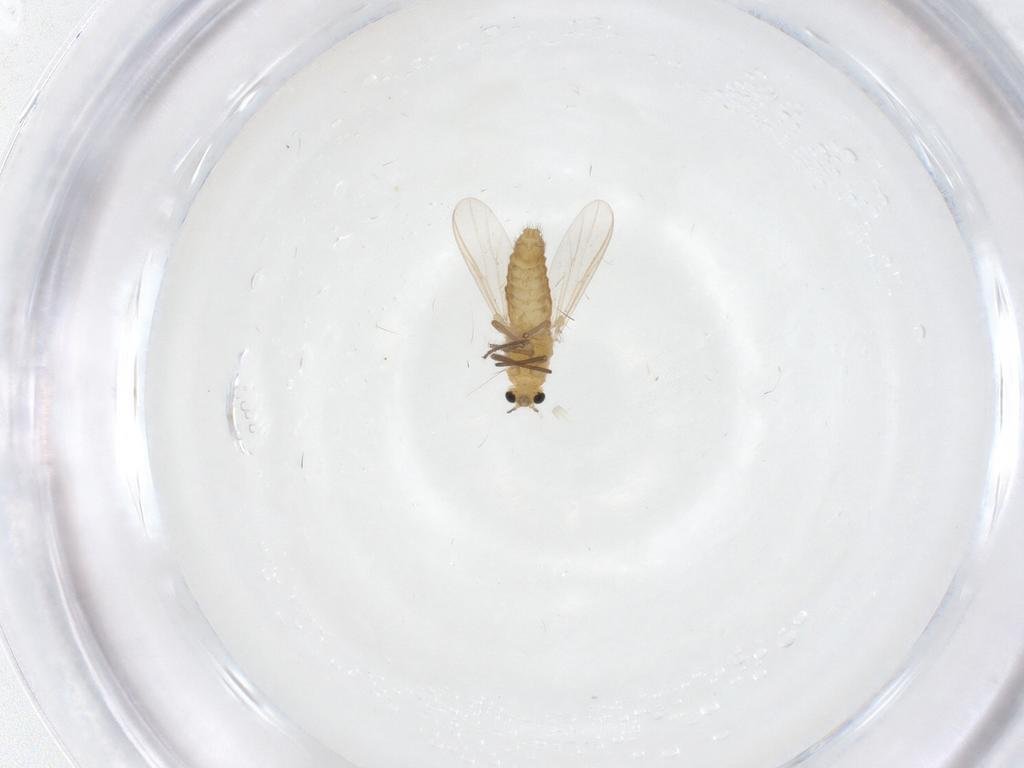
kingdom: Animalia
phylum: Arthropoda
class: Insecta
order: Diptera
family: Chironomidae
